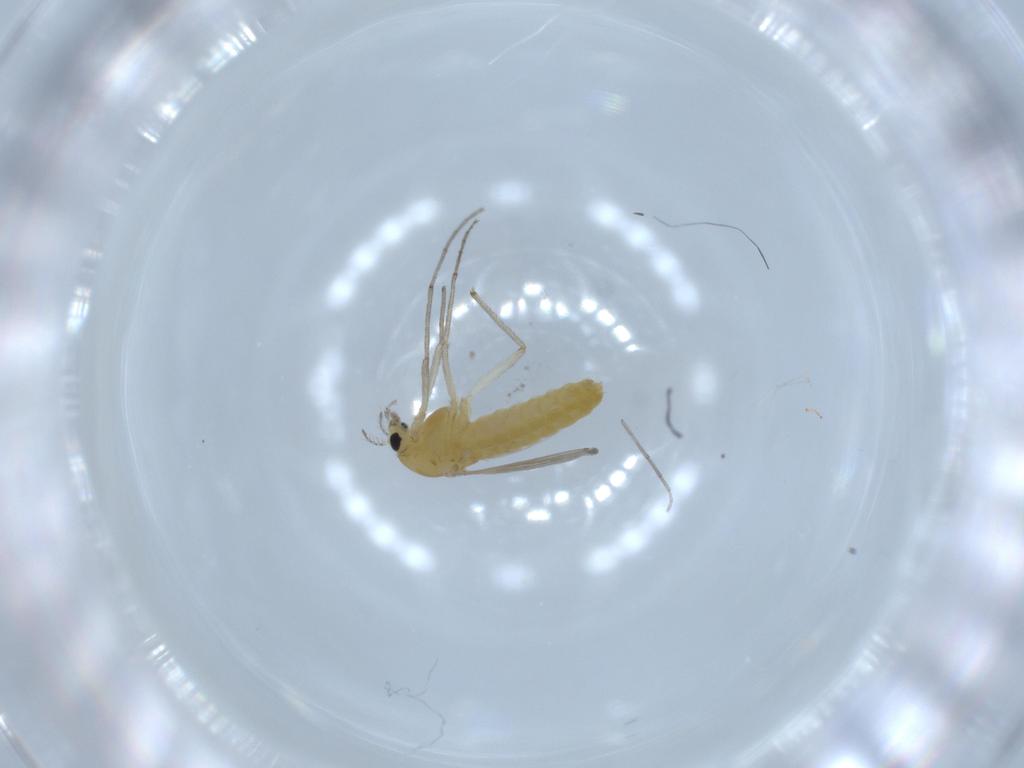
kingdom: Animalia
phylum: Arthropoda
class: Insecta
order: Diptera
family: Chironomidae
